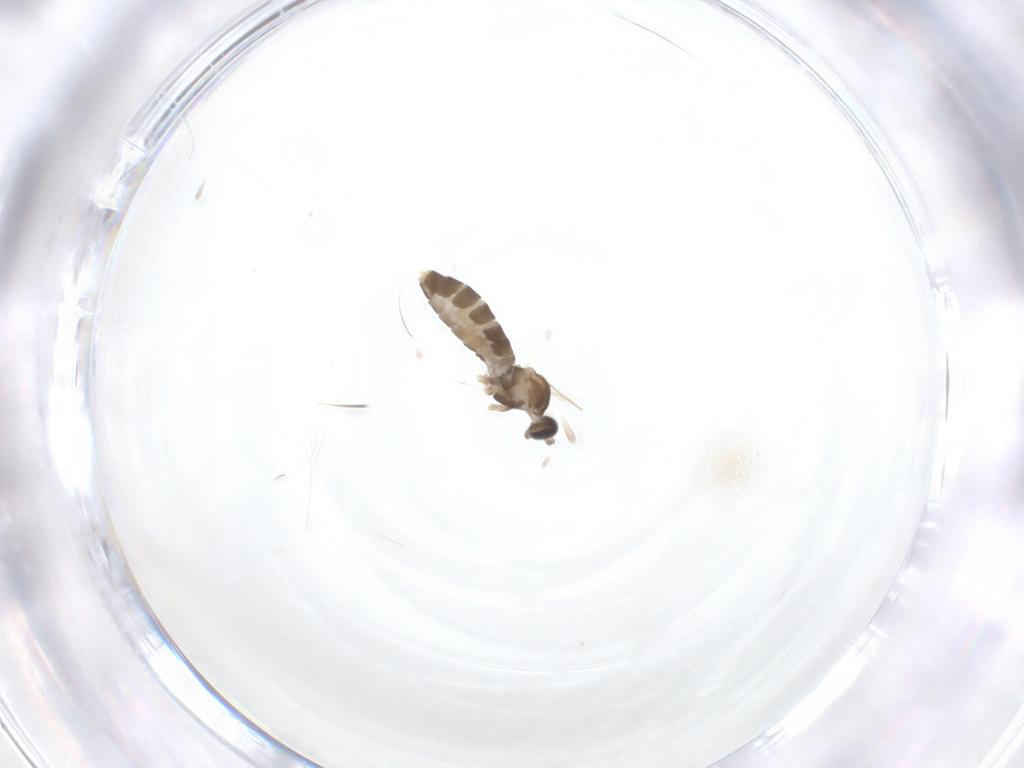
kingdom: Animalia
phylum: Arthropoda
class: Insecta
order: Diptera
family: Cecidomyiidae
